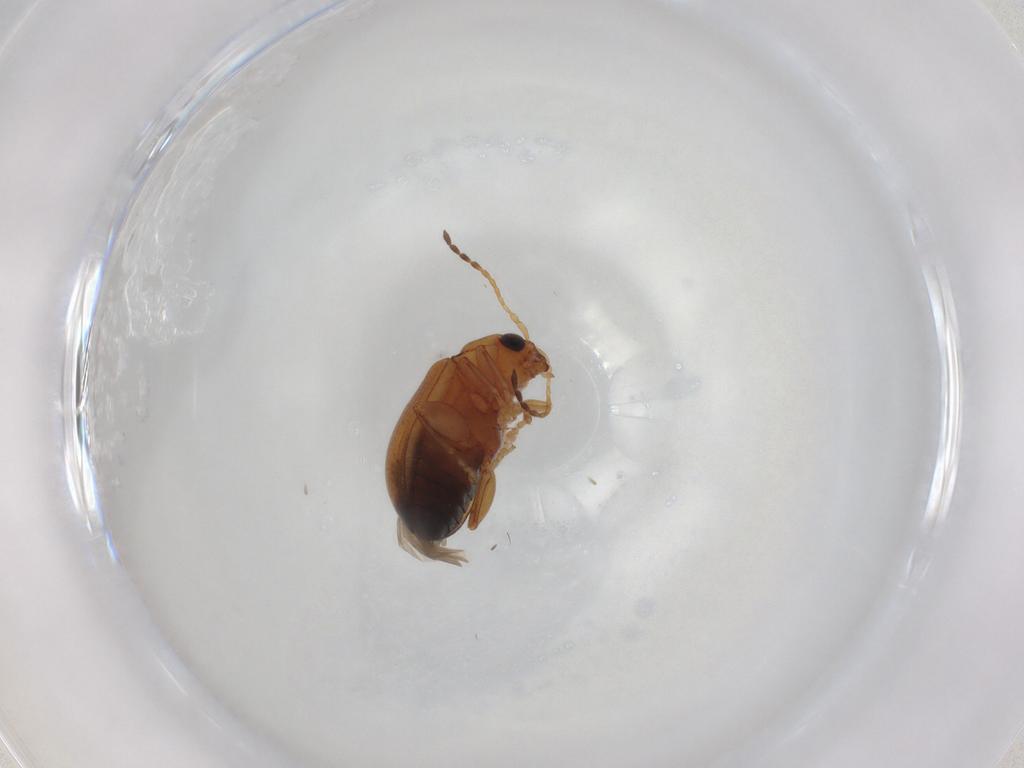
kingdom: Animalia
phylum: Arthropoda
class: Insecta
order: Coleoptera
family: Chrysomelidae
